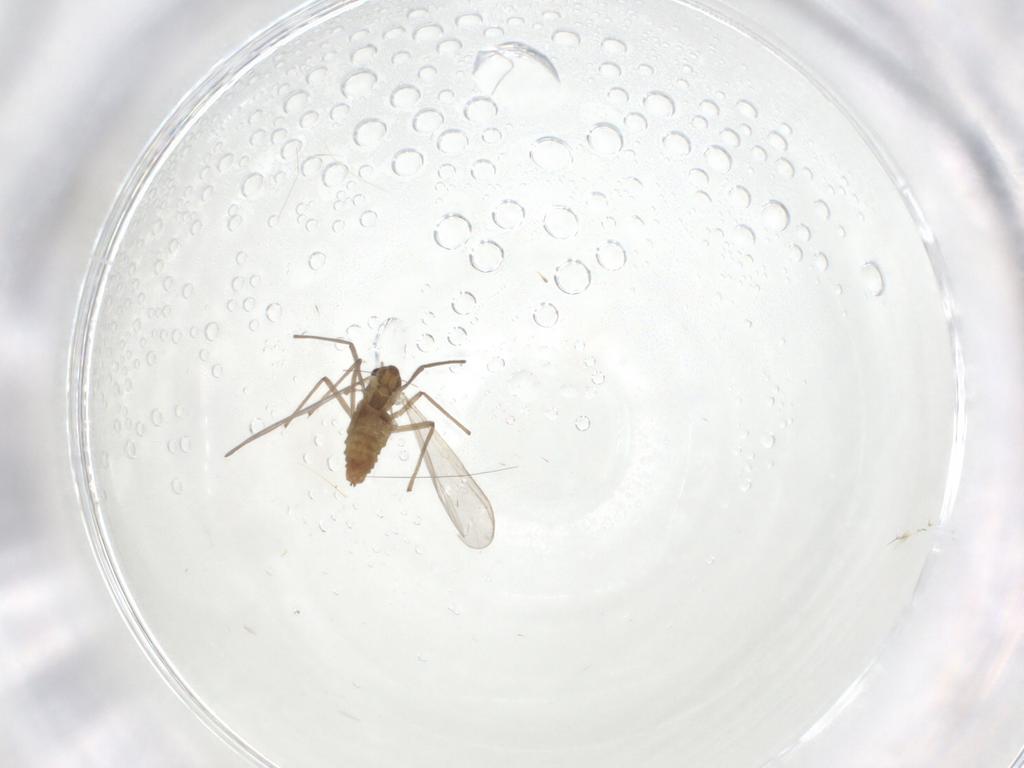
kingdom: Animalia
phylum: Arthropoda
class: Insecta
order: Diptera
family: Chironomidae
